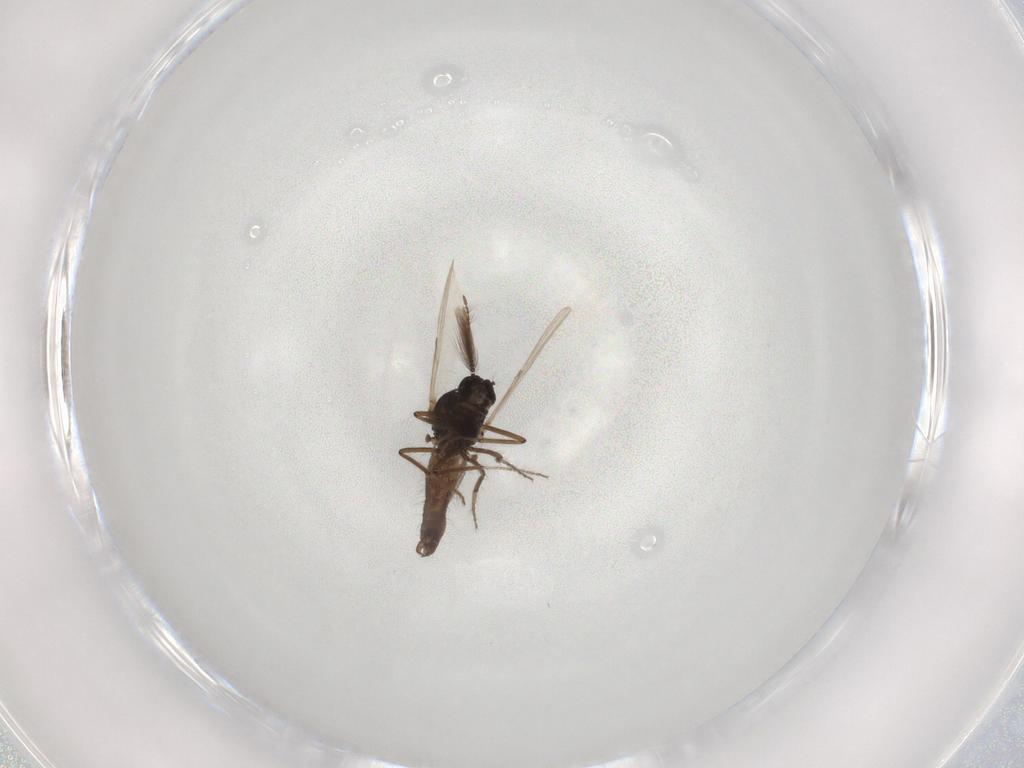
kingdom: Animalia
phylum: Arthropoda
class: Insecta
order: Diptera
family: Chironomidae
